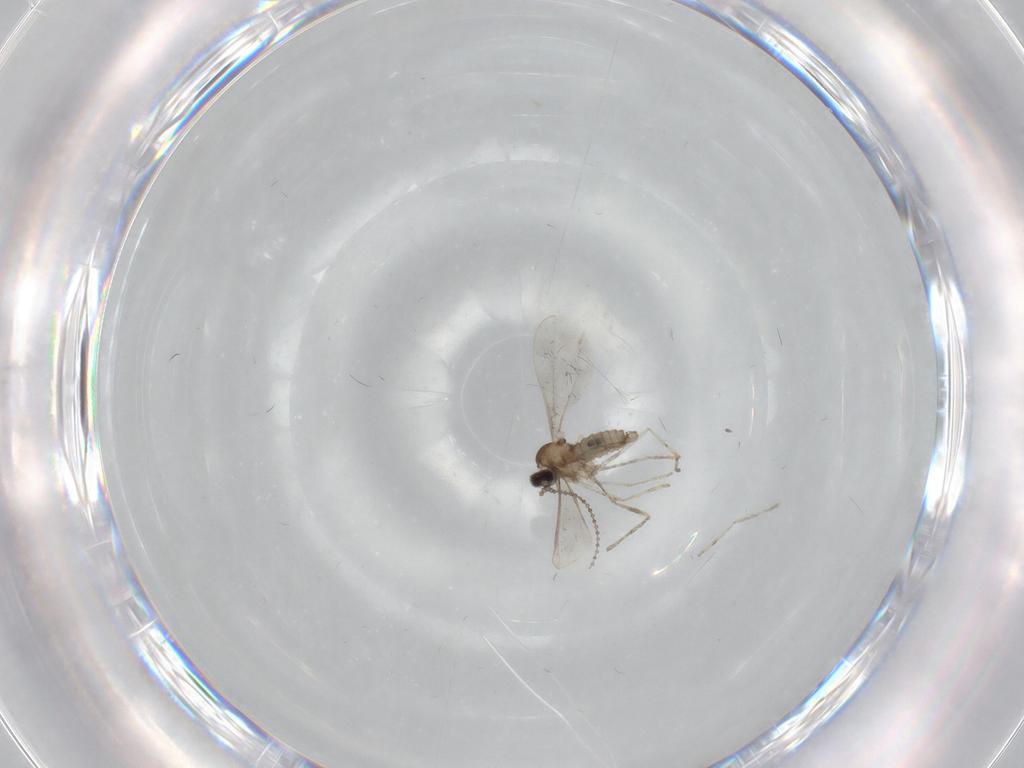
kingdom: Animalia
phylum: Arthropoda
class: Insecta
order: Diptera
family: Cecidomyiidae
